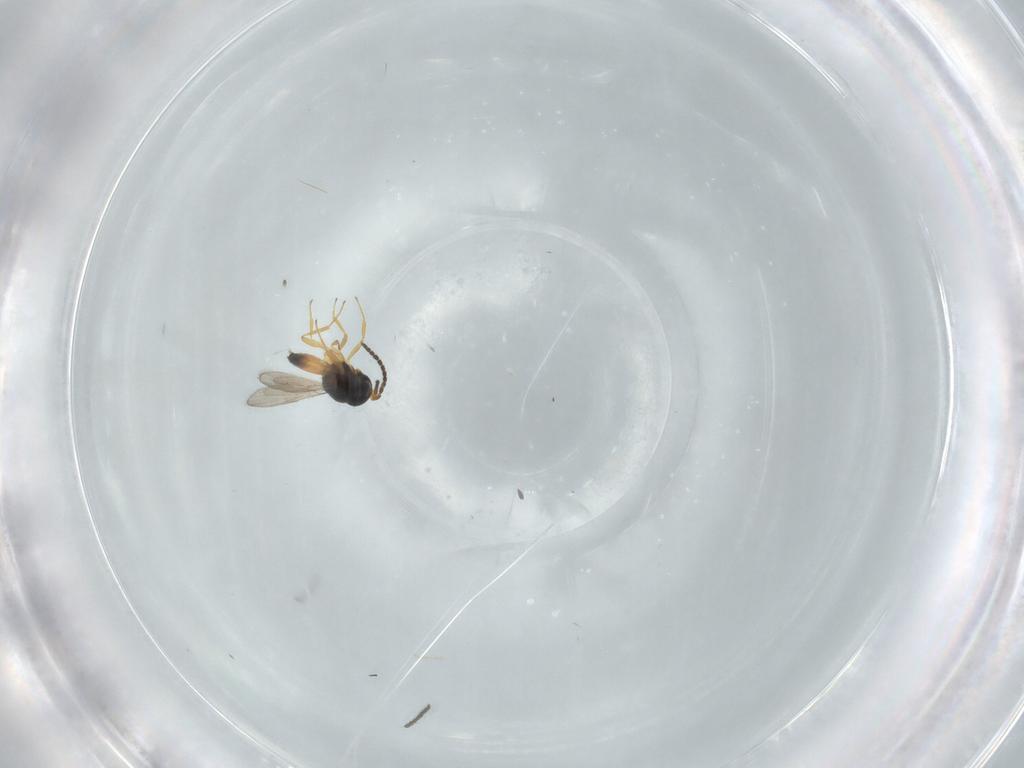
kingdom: Animalia
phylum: Arthropoda
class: Insecta
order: Hymenoptera
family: Scelionidae
